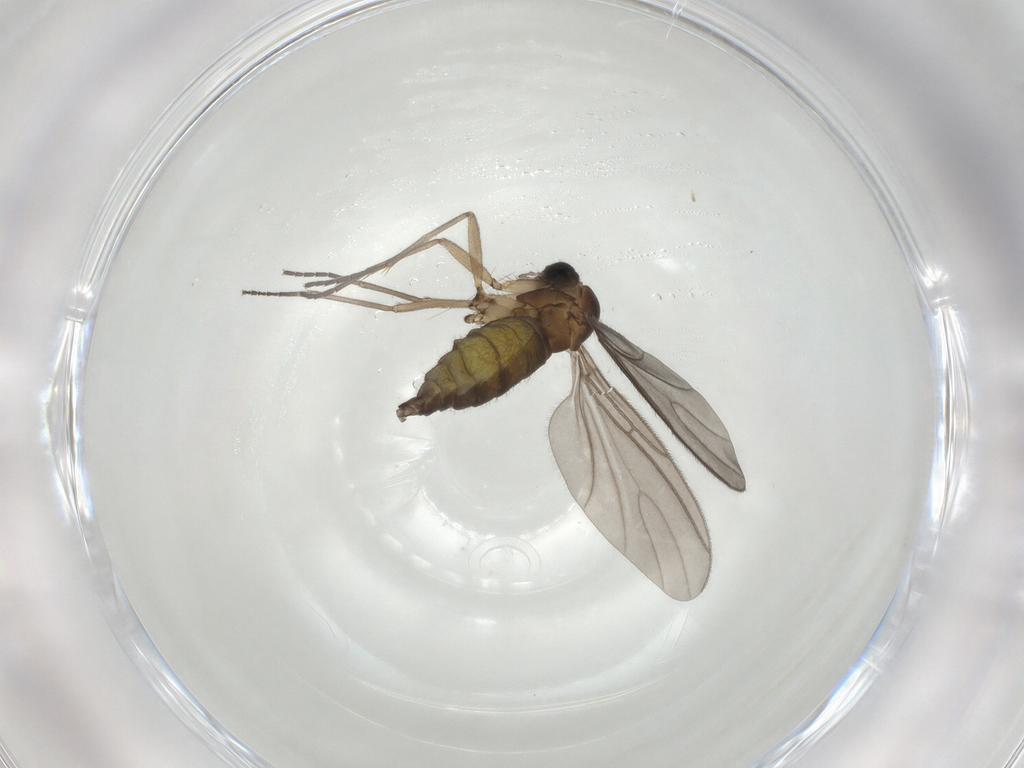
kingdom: Animalia
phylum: Arthropoda
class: Insecta
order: Diptera
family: Sciaridae
